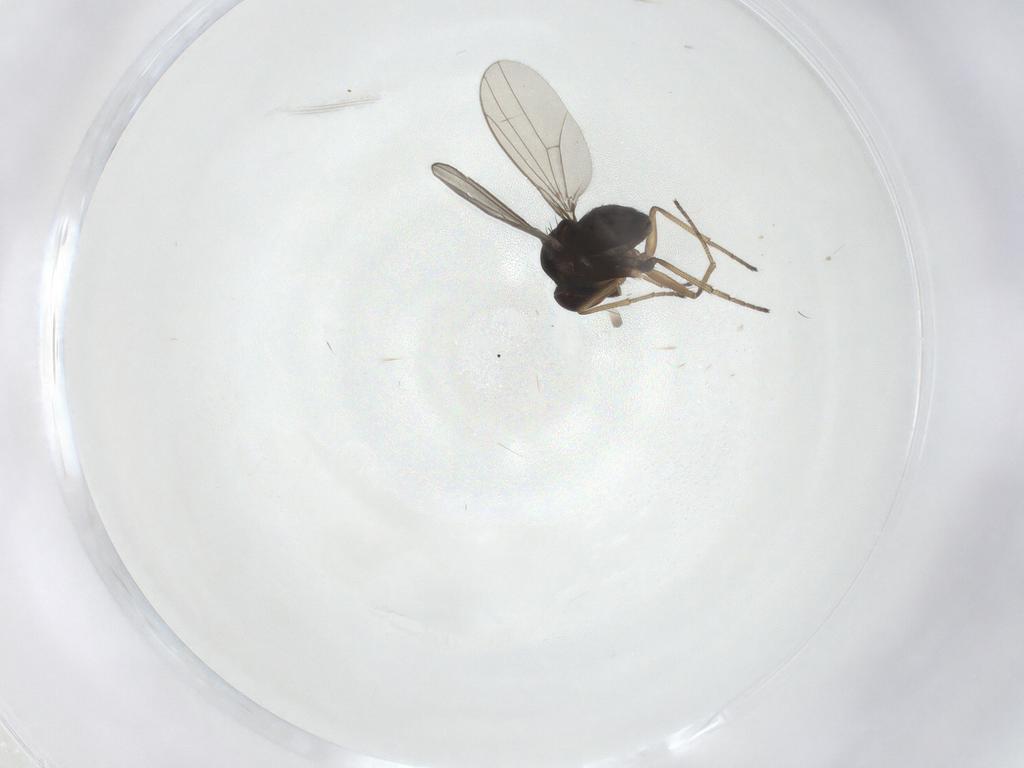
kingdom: Animalia
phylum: Arthropoda
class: Insecta
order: Diptera
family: Dolichopodidae
